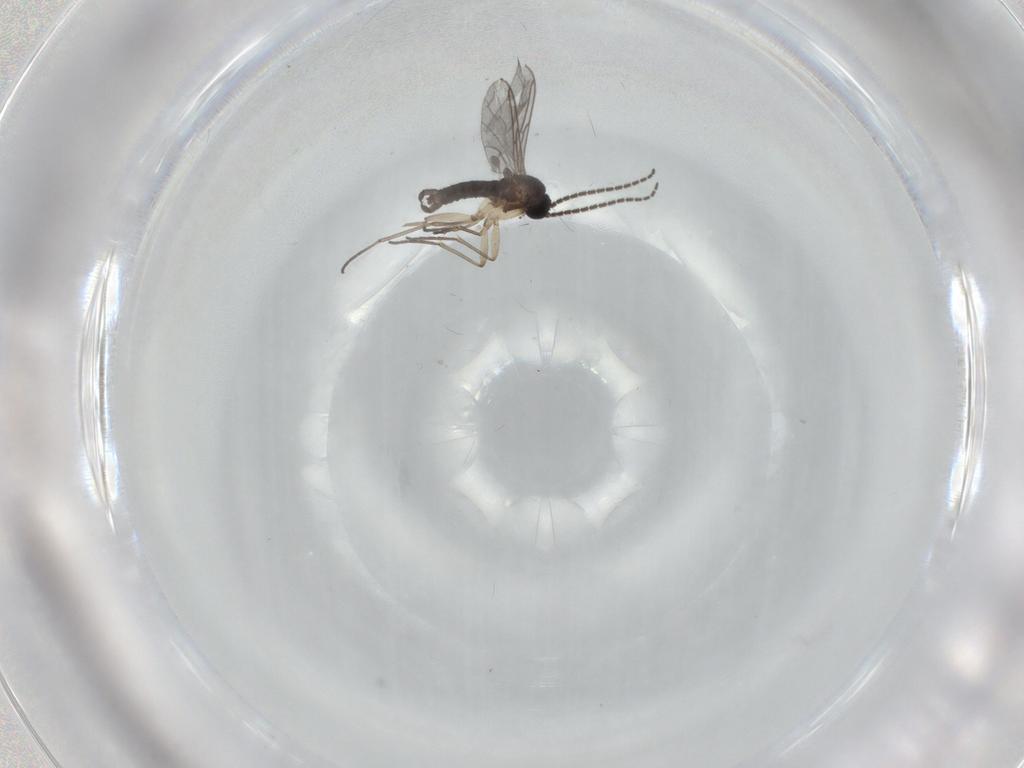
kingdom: Animalia
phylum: Arthropoda
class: Insecta
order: Diptera
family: Sciaridae
